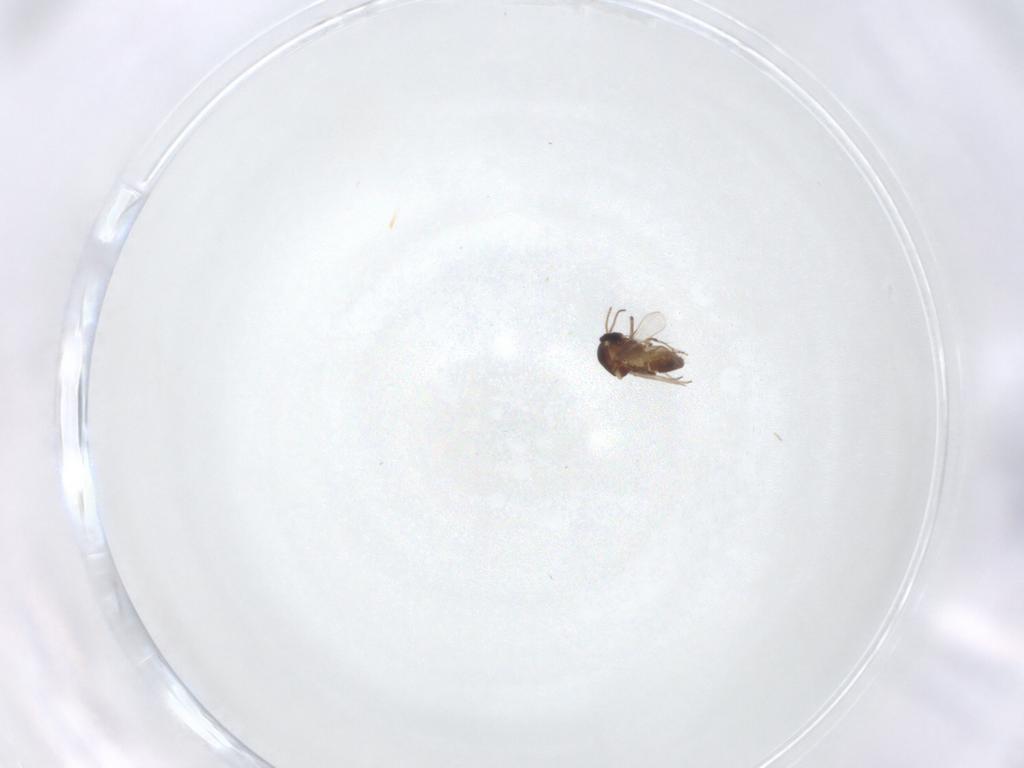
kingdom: Animalia
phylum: Arthropoda
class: Insecta
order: Diptera
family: Ceratopogonidae
